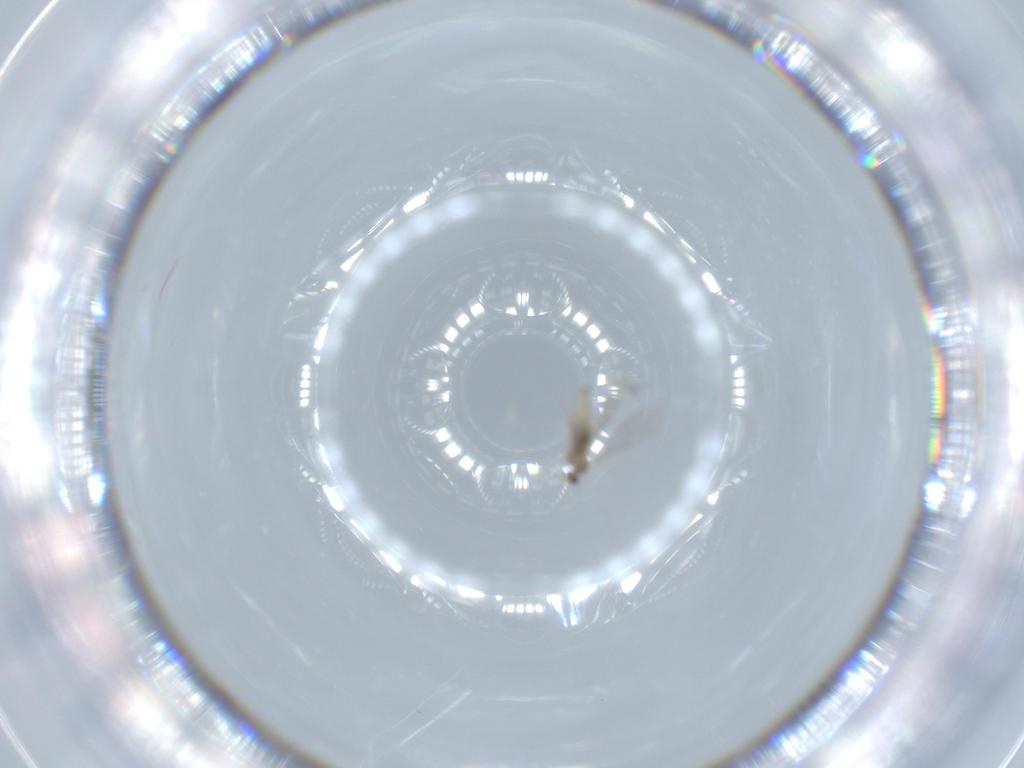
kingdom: Animalia
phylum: Arthropoda
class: Insecta
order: Diptera
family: Cecidomyiidae
